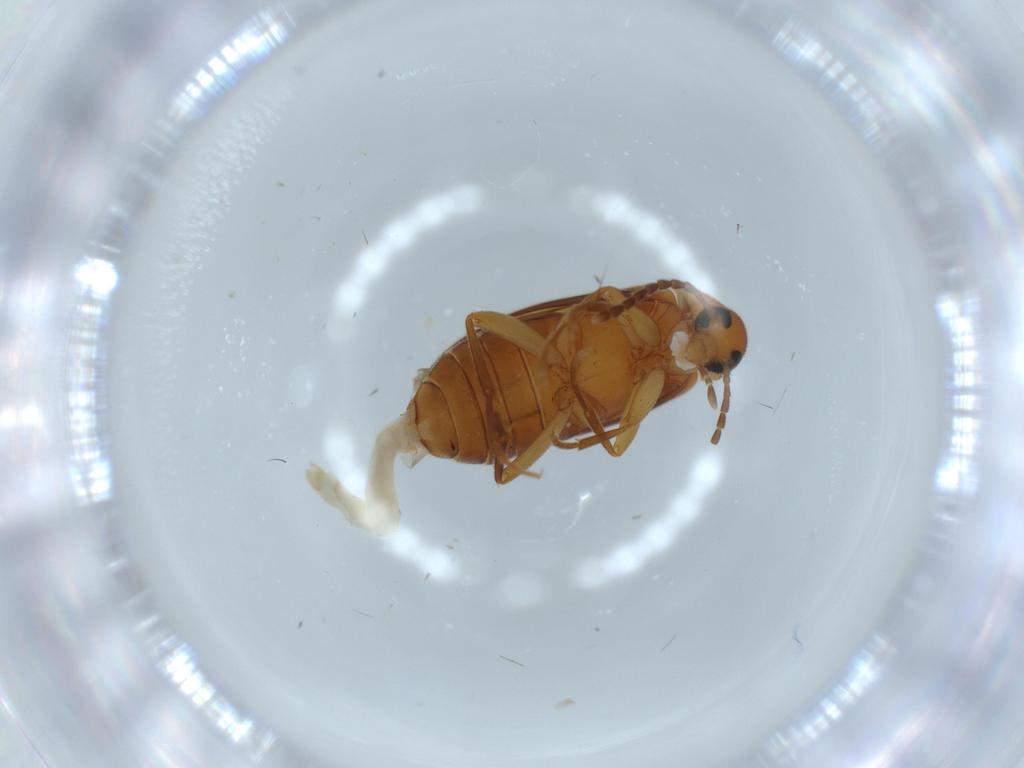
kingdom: Animalia
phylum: Arthropoda
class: Insecta
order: Coleoptera
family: Scraptiidae
